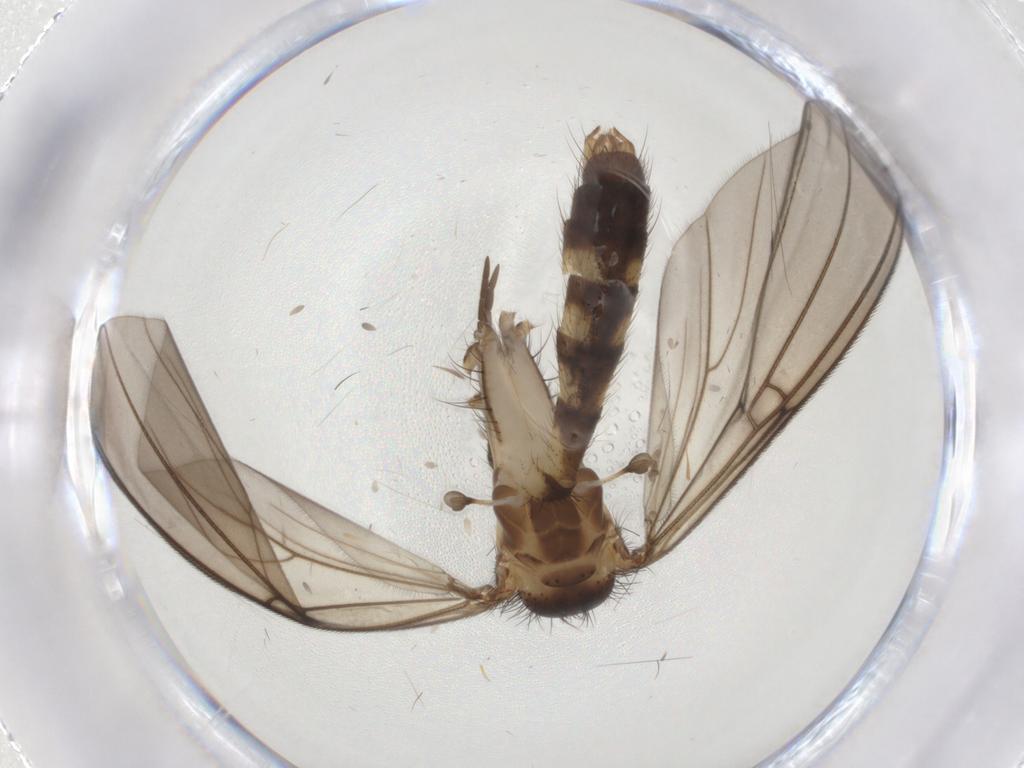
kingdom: Animalia
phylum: Arthropoda
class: Insecta
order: Diptera
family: Mycetophilidae
